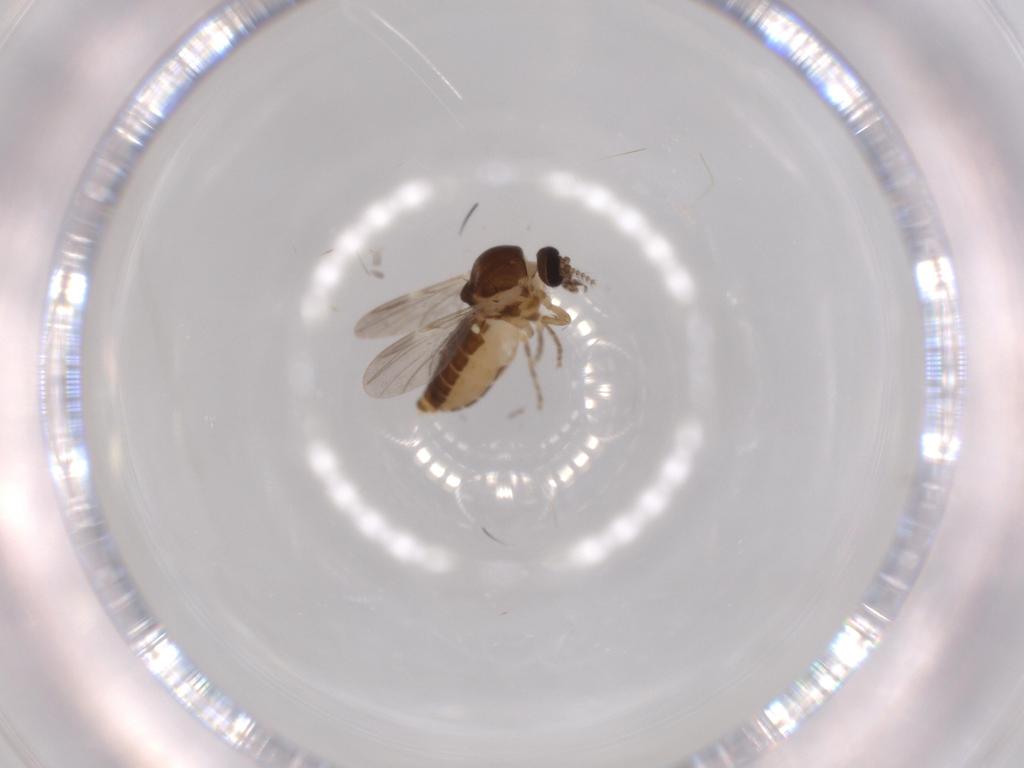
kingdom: Animalia
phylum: Arthropoda
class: Insecta
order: Diptera
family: Ceratopogonidae
